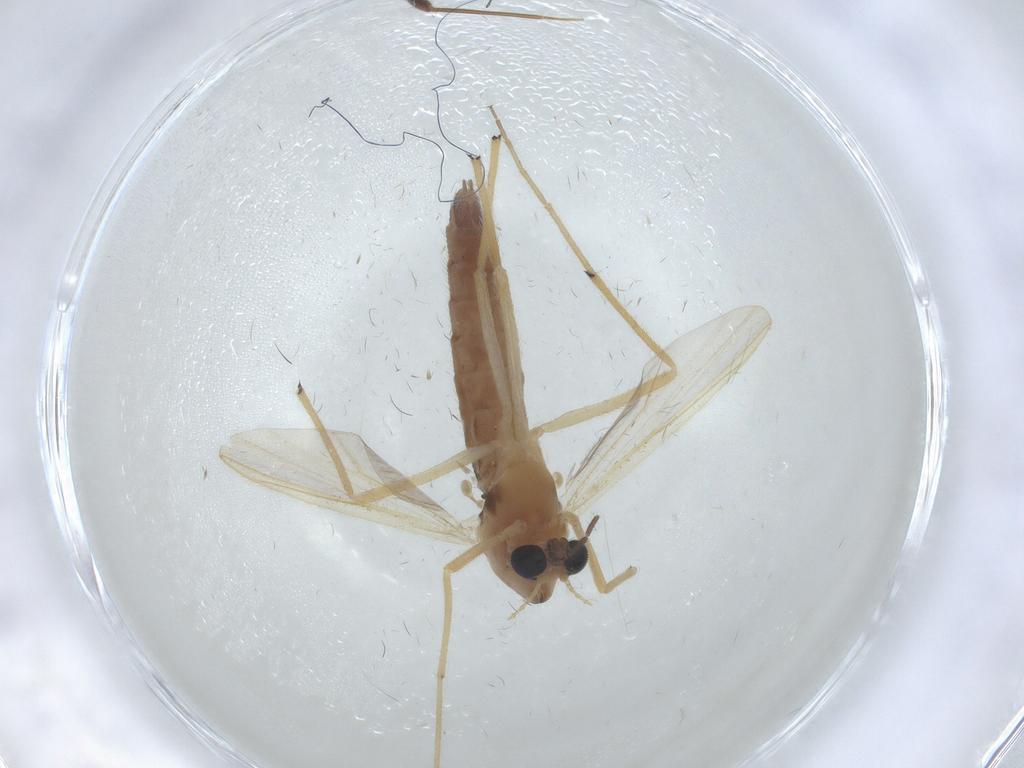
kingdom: Animalia
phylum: Arthropoda
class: Insecta
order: Diptera
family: Chironomidae
